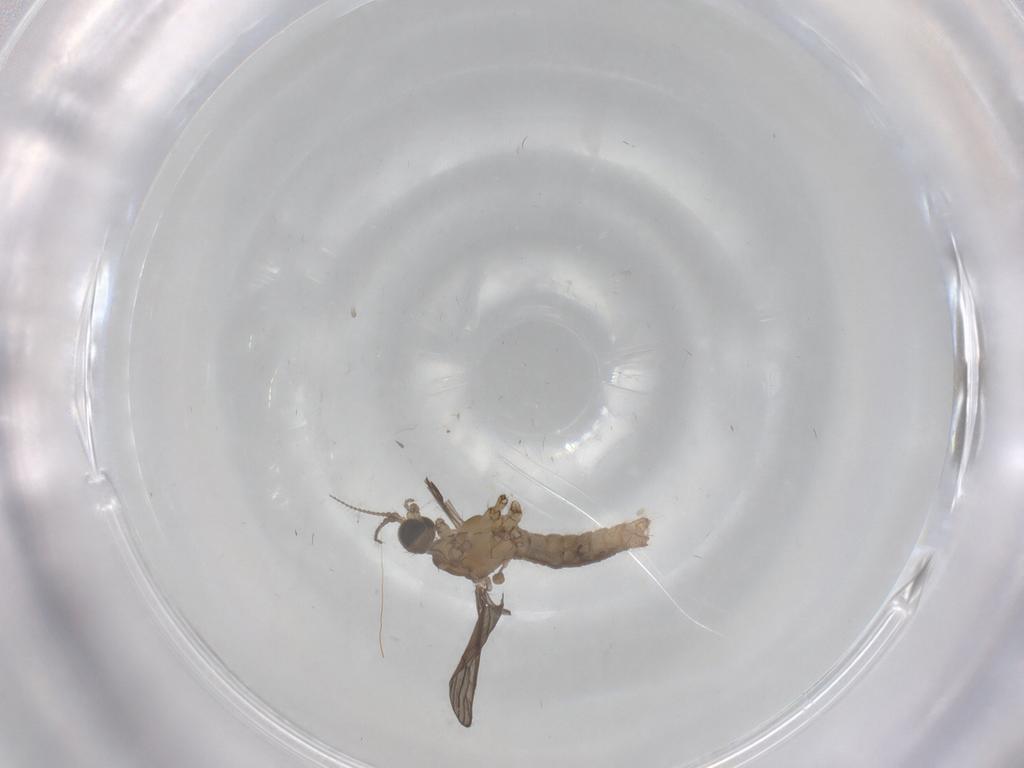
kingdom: Animalia
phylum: Arthropoda
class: Insecta
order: Diptera
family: Limoniidae
